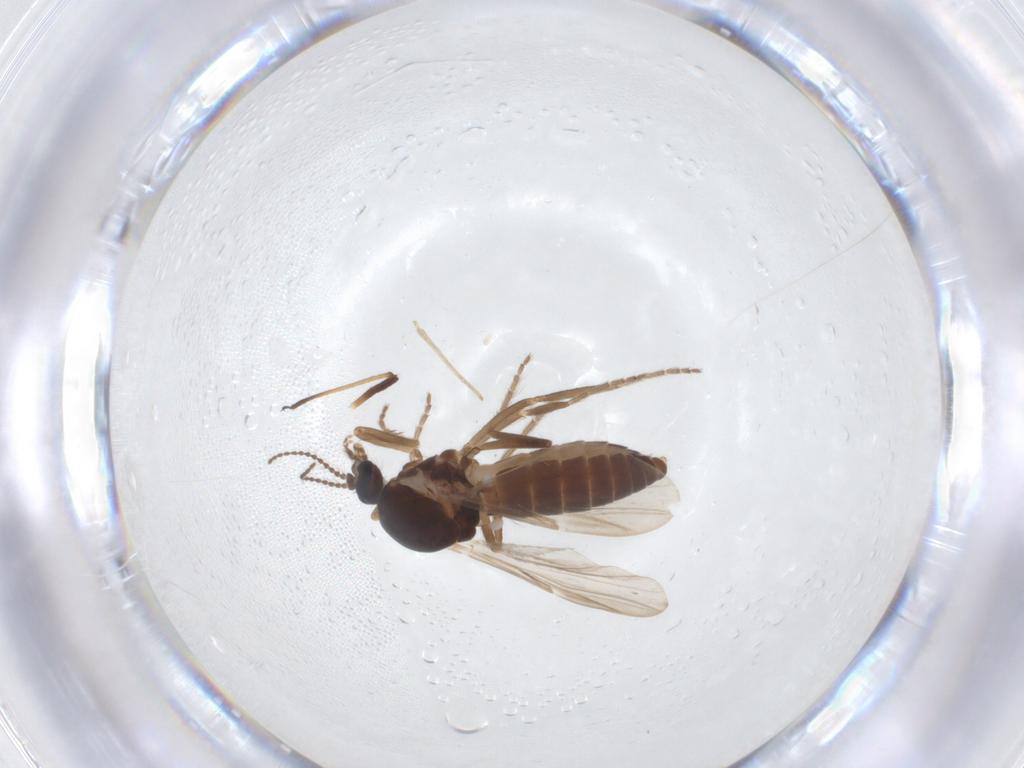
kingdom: Animalia
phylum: Arthropoda
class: Insecta
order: Diptera
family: Ceratopogonidae
